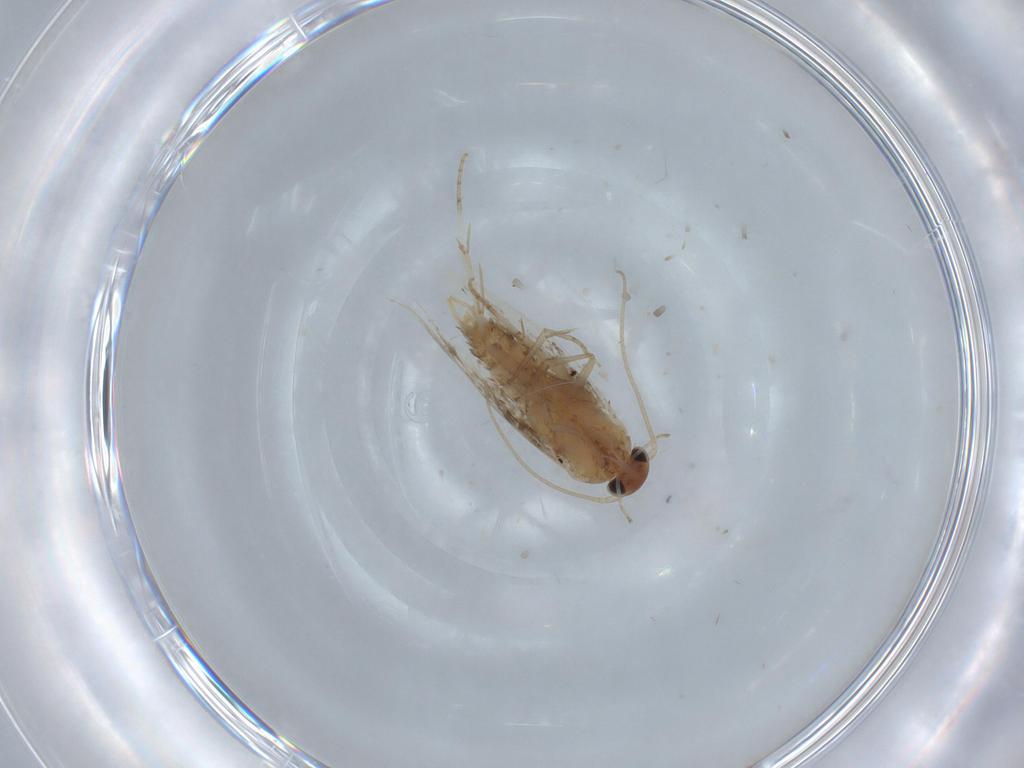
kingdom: Animalia
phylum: Arthropoda
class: Insecta
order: Lepidoptera
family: Elachistidae
